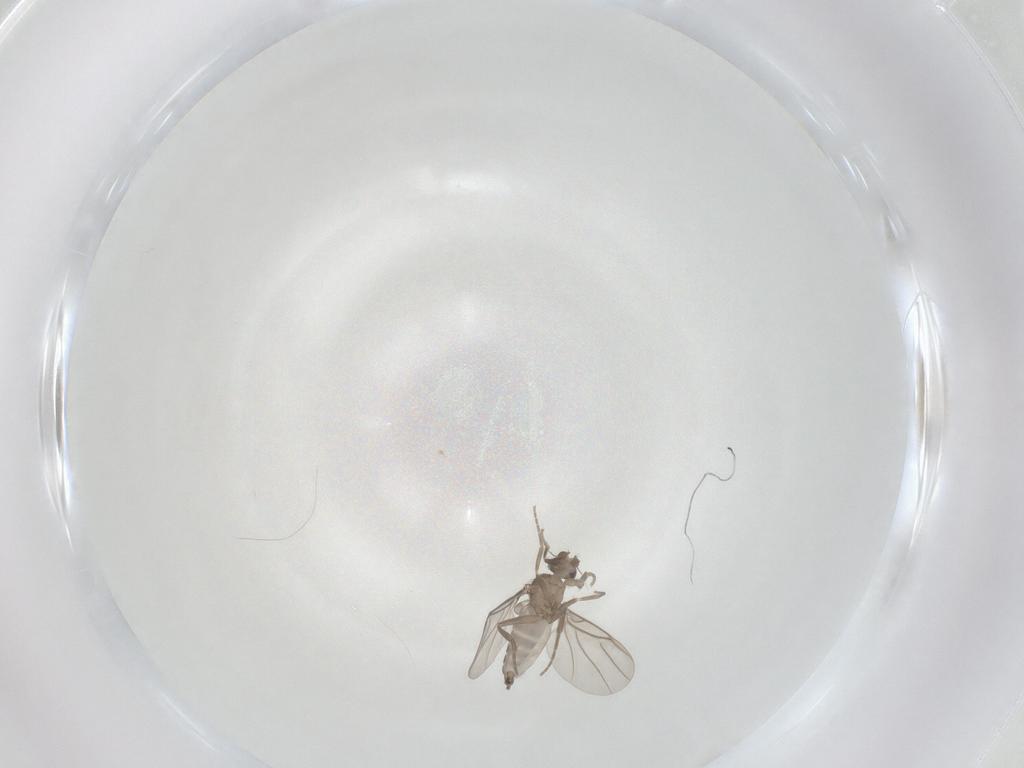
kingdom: Animalia
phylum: Arthropoda
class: Insecta
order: Diptera
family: Phoridae
